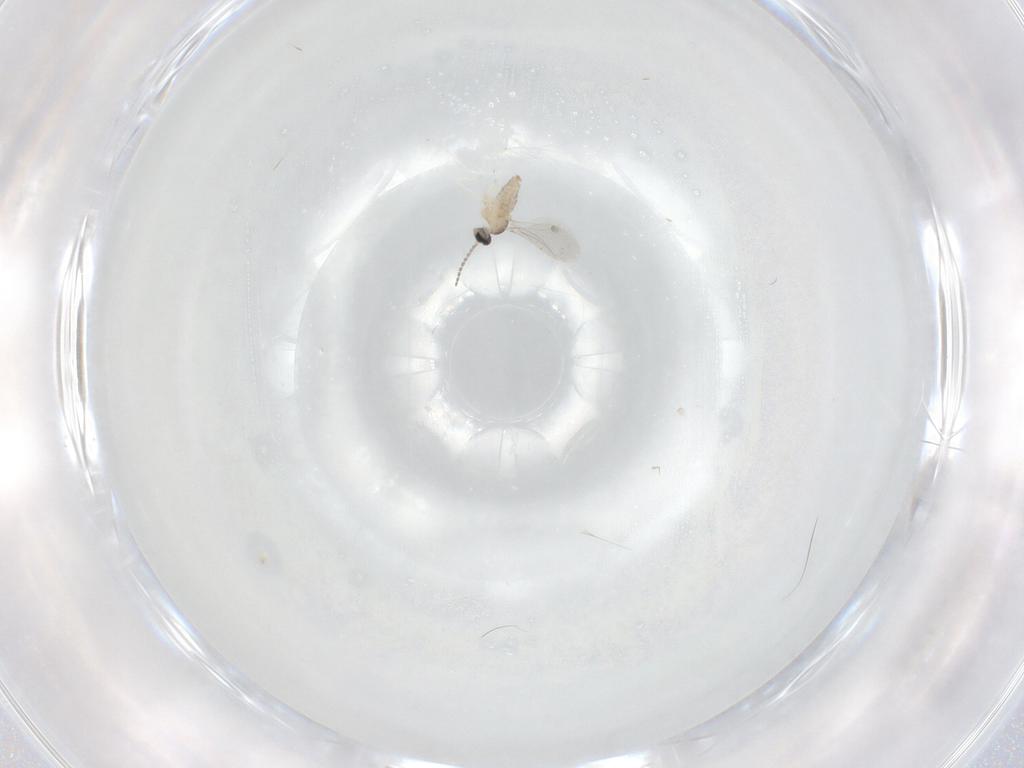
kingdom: Animalia
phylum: Arthropoda
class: Insecta
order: Diptera
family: Cecidomyiidae
